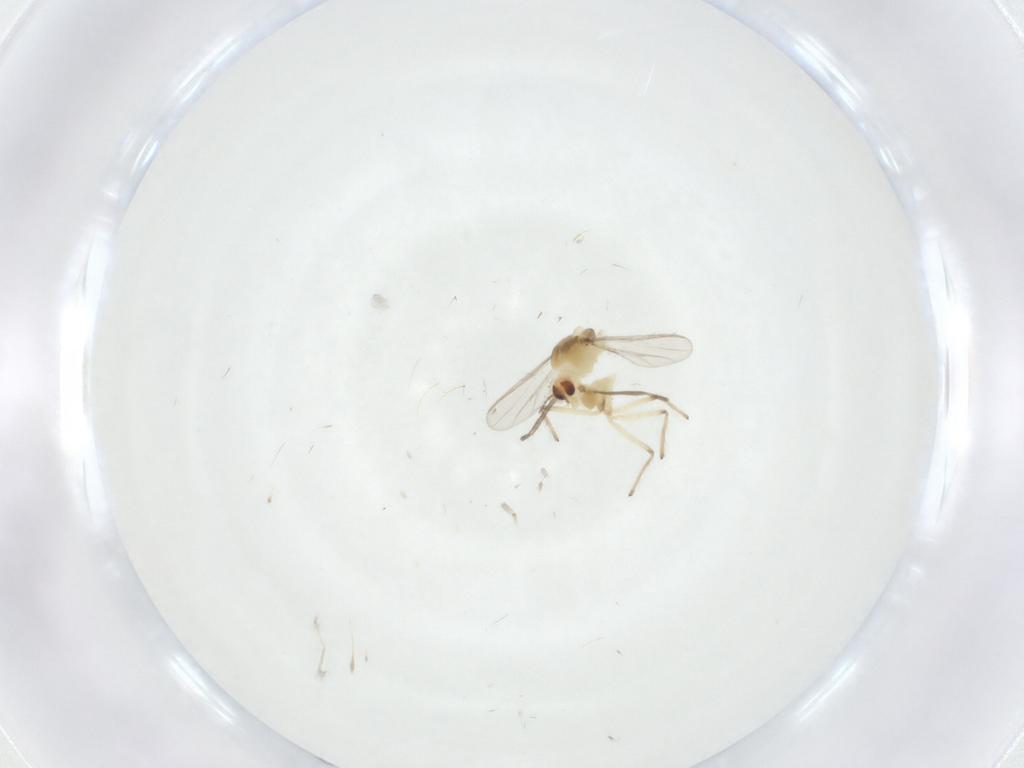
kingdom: Animalia
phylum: Arthropoda
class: Insecta
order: Diptera
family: Chironomidae
